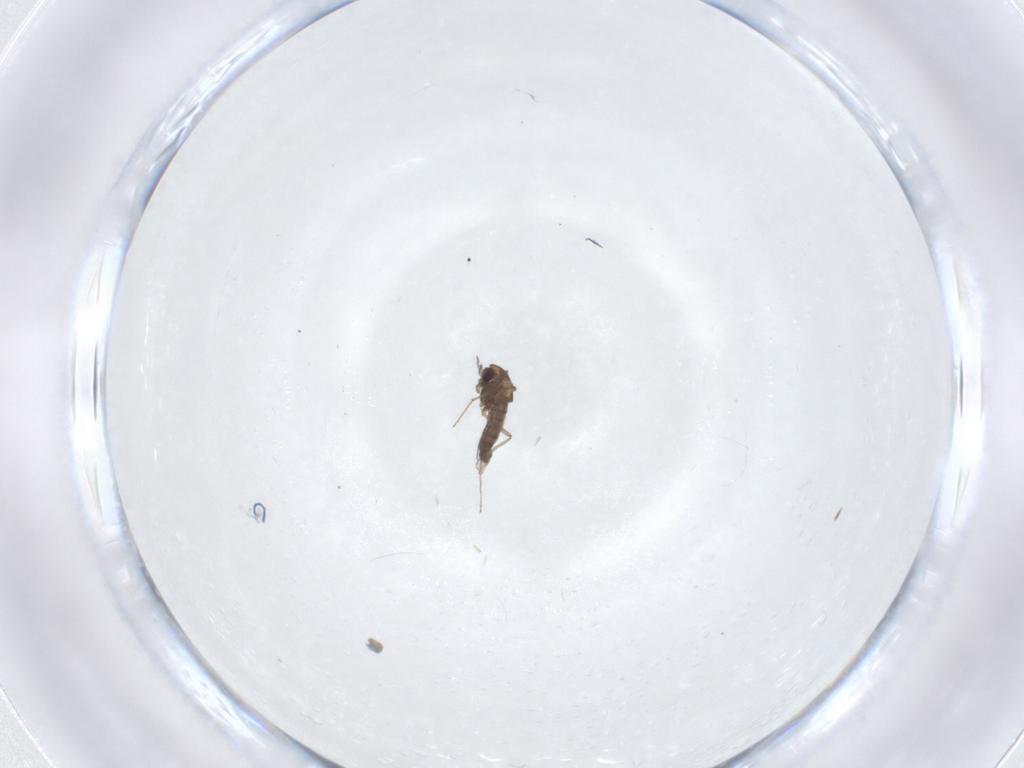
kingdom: Animalia
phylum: Arthropoda
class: Insecta
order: Diptera
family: Chironomidae
